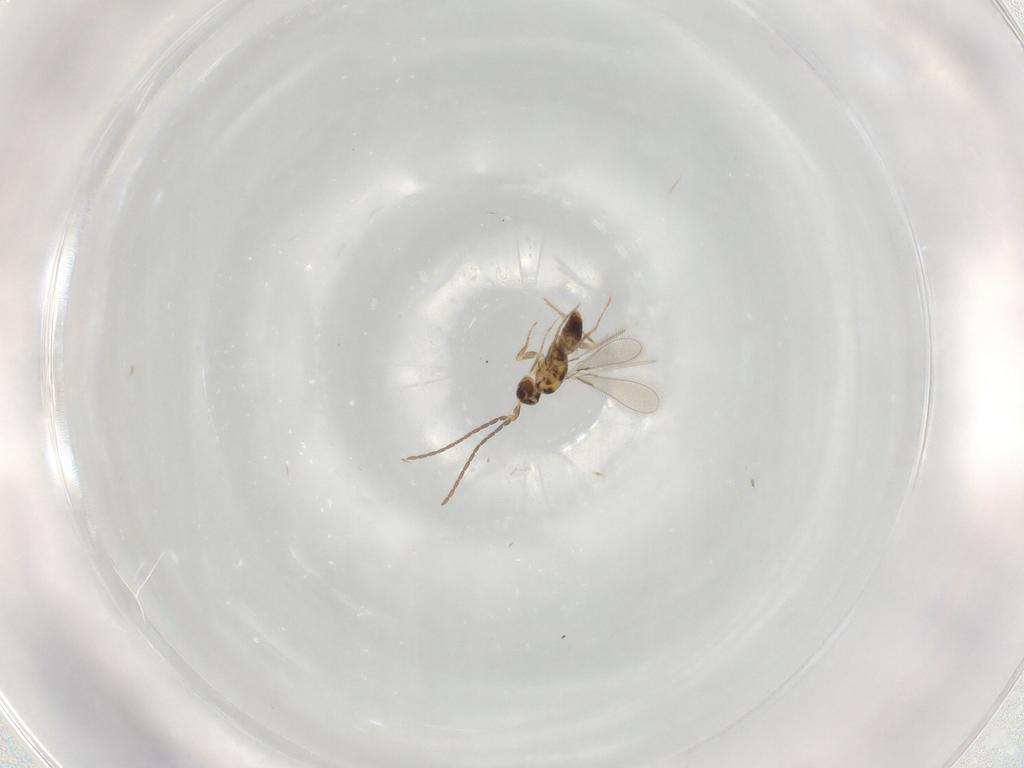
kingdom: Animalia
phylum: Arthropoda
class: Insecta
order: Hymenoptera
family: Mymaridae
